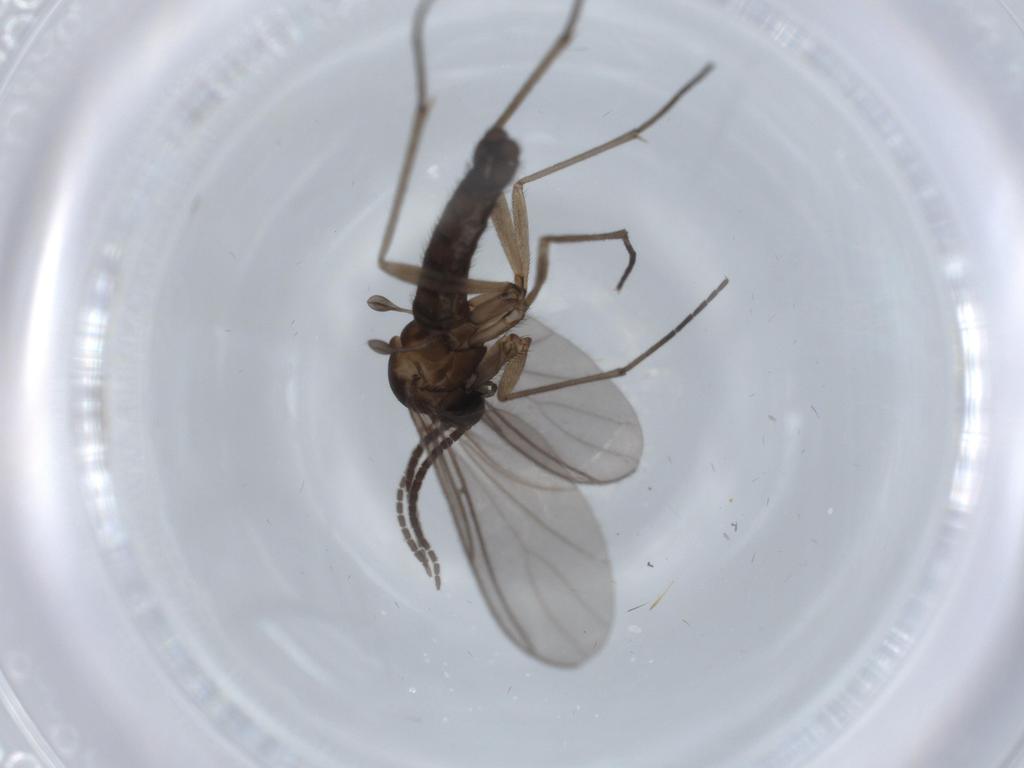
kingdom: Animalia
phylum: Arthropoda
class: Insecta
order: Diptera
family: Sciaridae
